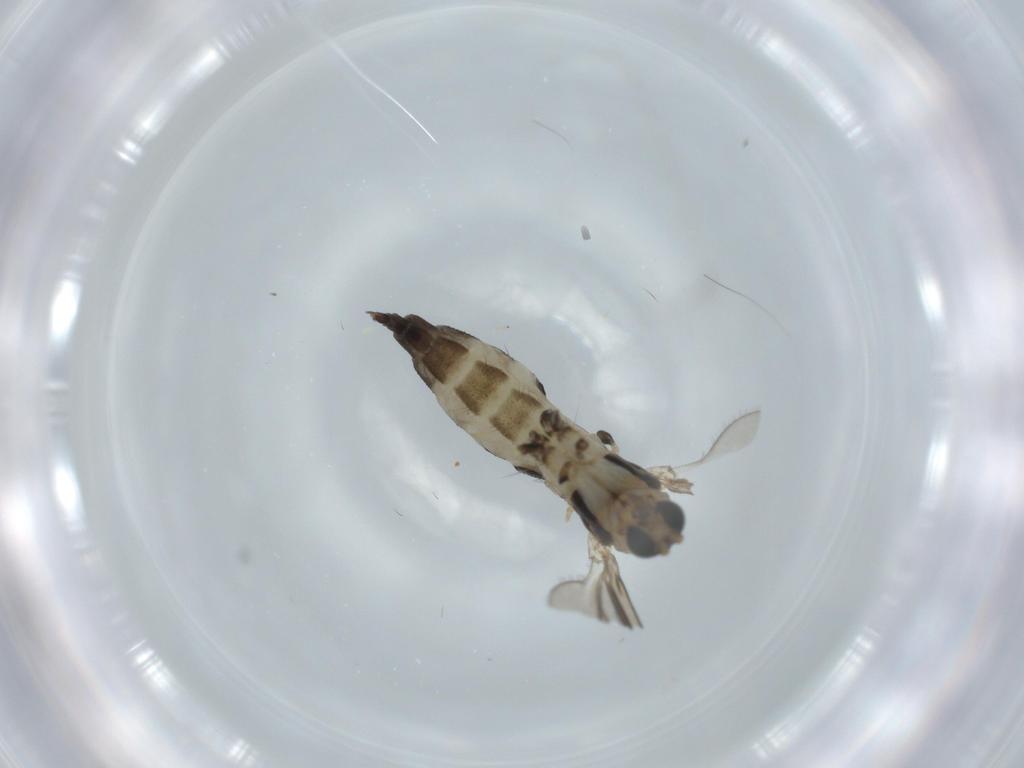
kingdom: Animalia
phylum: Arthropoda
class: Insecta
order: Diptera
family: Sciaridae
